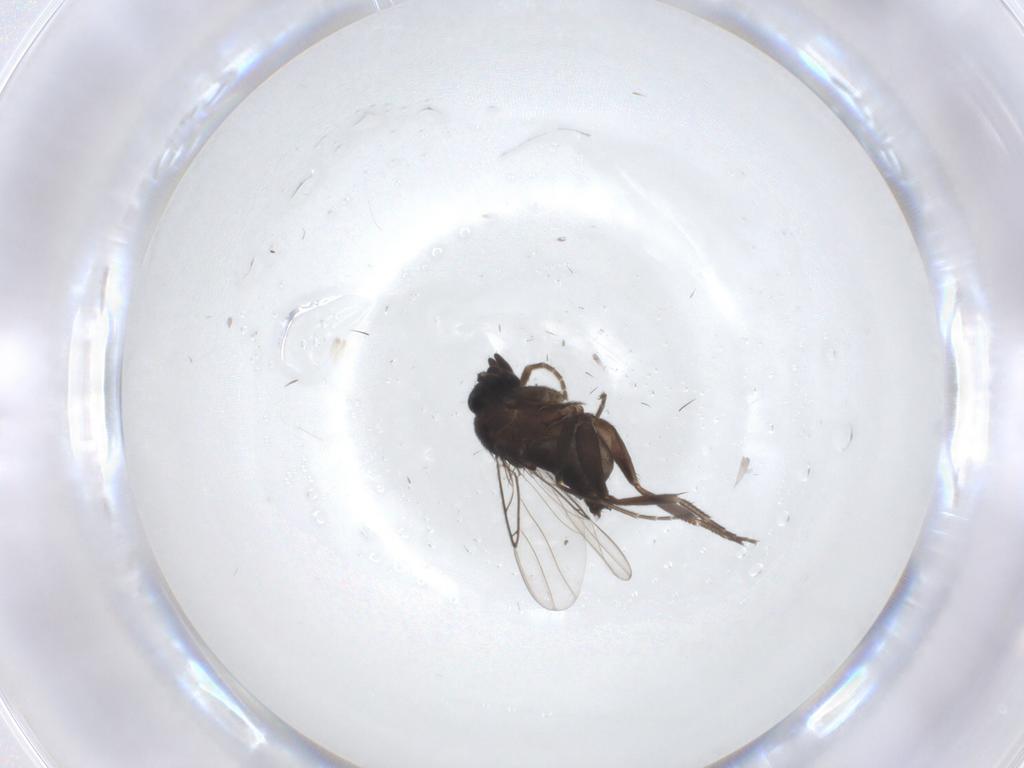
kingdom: Animalia
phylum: Arthropoda
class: Insecta
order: Diptera
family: Phoridae
